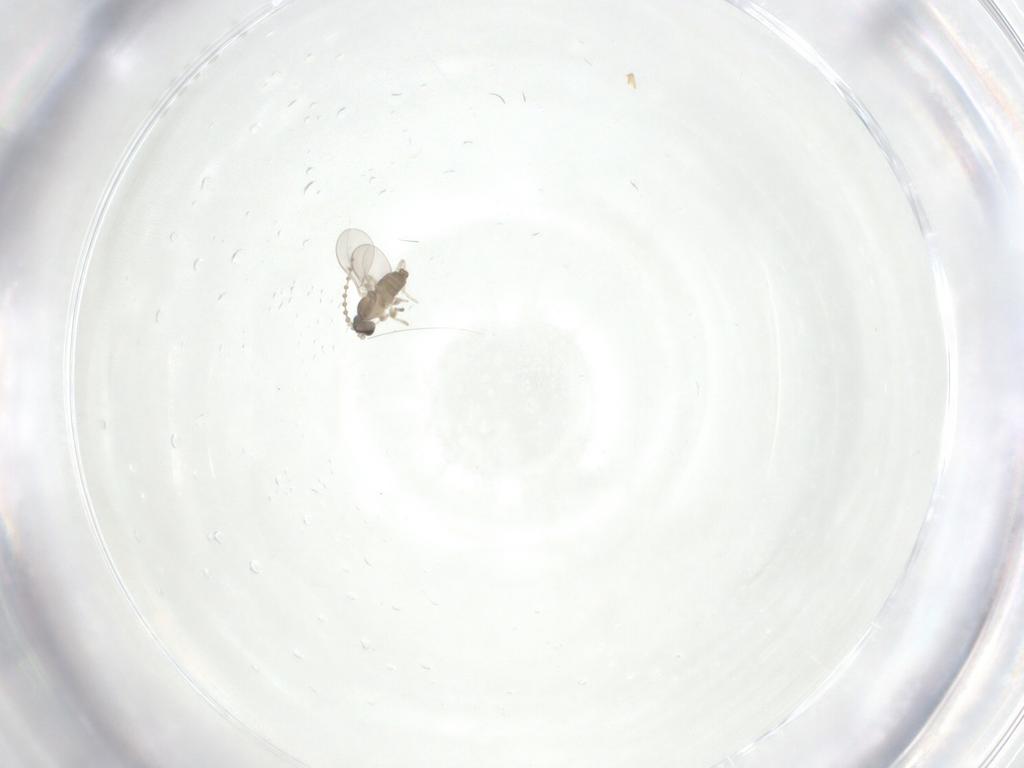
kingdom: Animalia
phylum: Arthropoda
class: Insecta
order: Diptera
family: Cecidomyiidae
